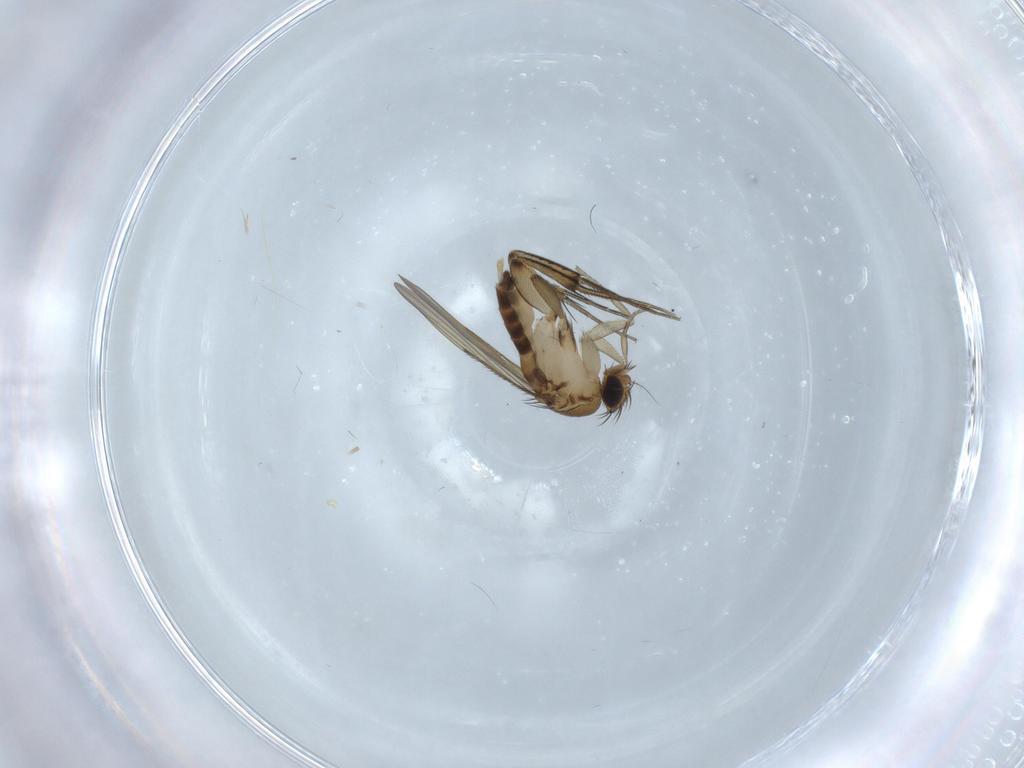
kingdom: Animalia
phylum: Arthropoda
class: Insecta
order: Diptera
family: Phoridae
